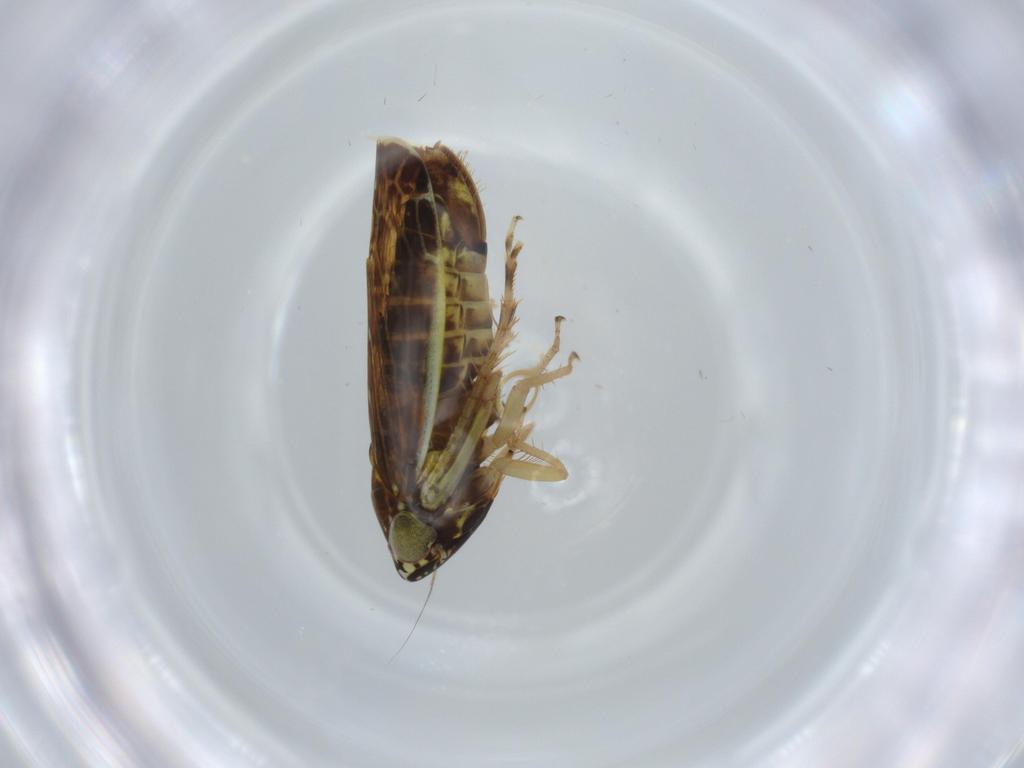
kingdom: Animalia
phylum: Arthropoda
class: Insecta
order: Hemiptera
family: Cicadellidae
